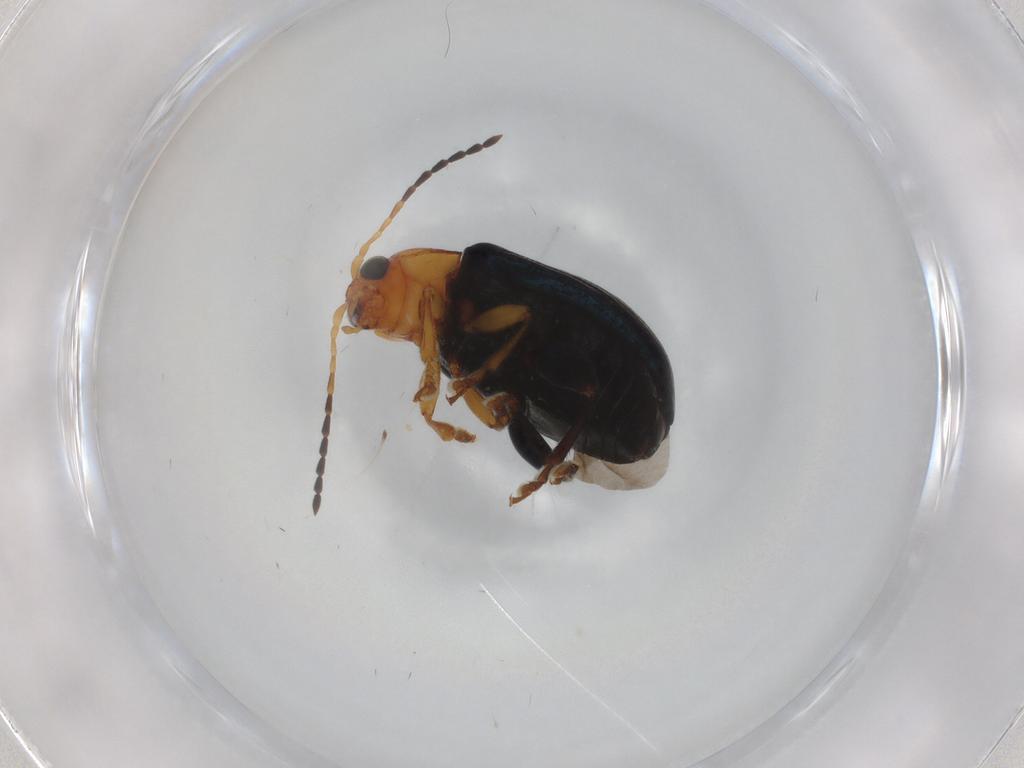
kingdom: Animalia
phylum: Arthropoda
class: Insecta
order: Coleoptera
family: Chrysomelidae
